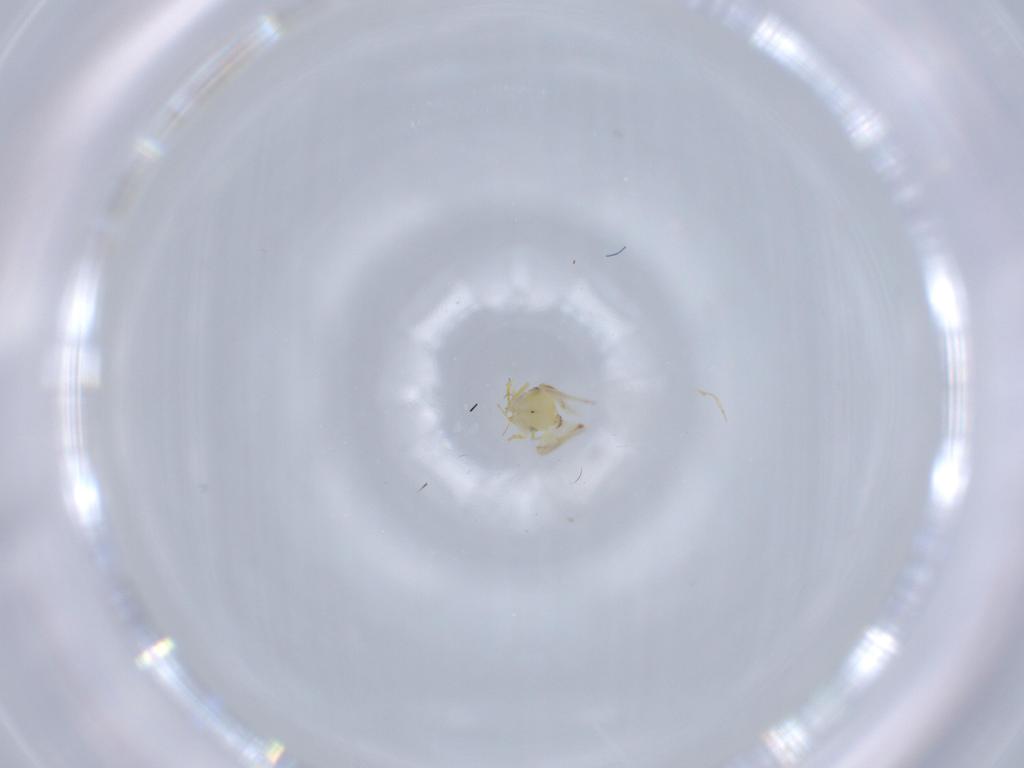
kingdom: Animalia
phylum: Arthropoda
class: Insecta
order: Hemiptera
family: Aleyrodidae
